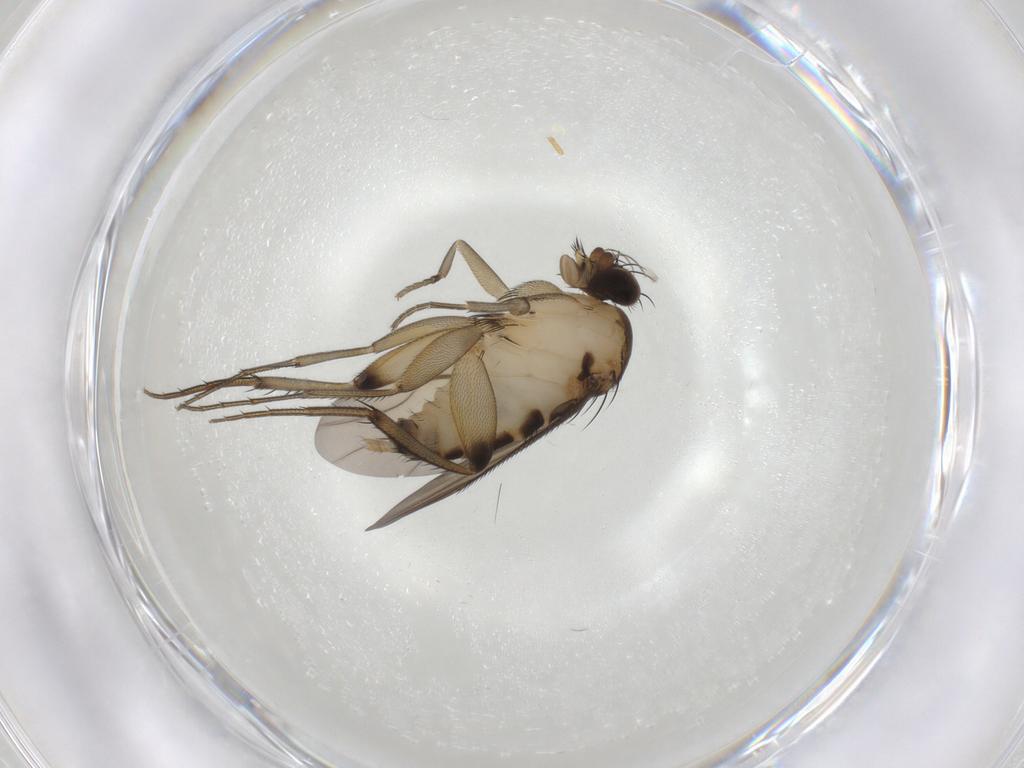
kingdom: Animalia
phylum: Arthropoda
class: Insecta
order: Diptera
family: Phoridae
